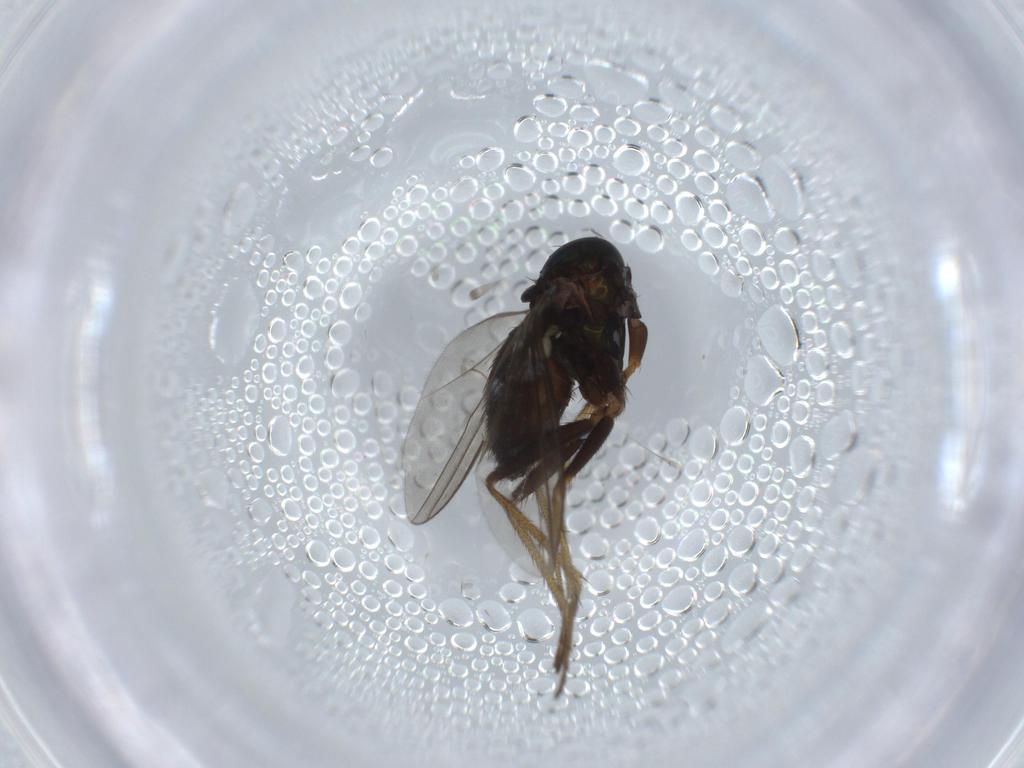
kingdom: Animalia
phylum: Arthropoda
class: Insecta
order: Diptera
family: Dolichopodidae
